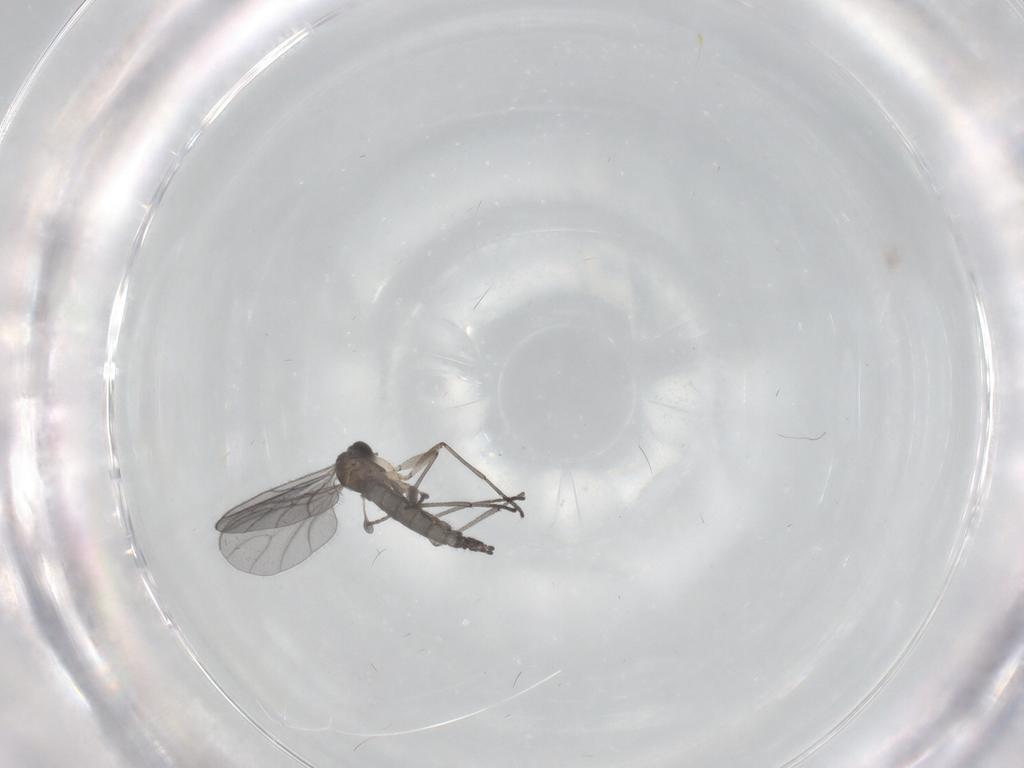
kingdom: Animalia
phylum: Arthropoda
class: Insecta
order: Diptera
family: Sciaridae
